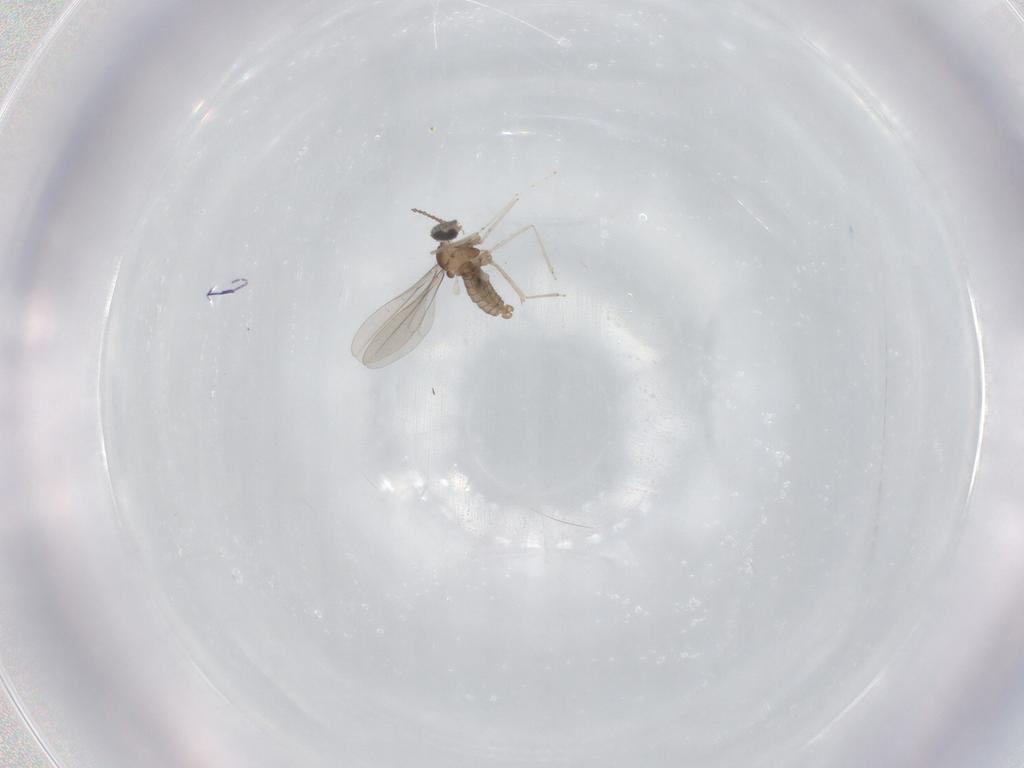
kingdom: Animalia
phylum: Arthropoda
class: Insecta
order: Diptera
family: Cecidomyiidae
